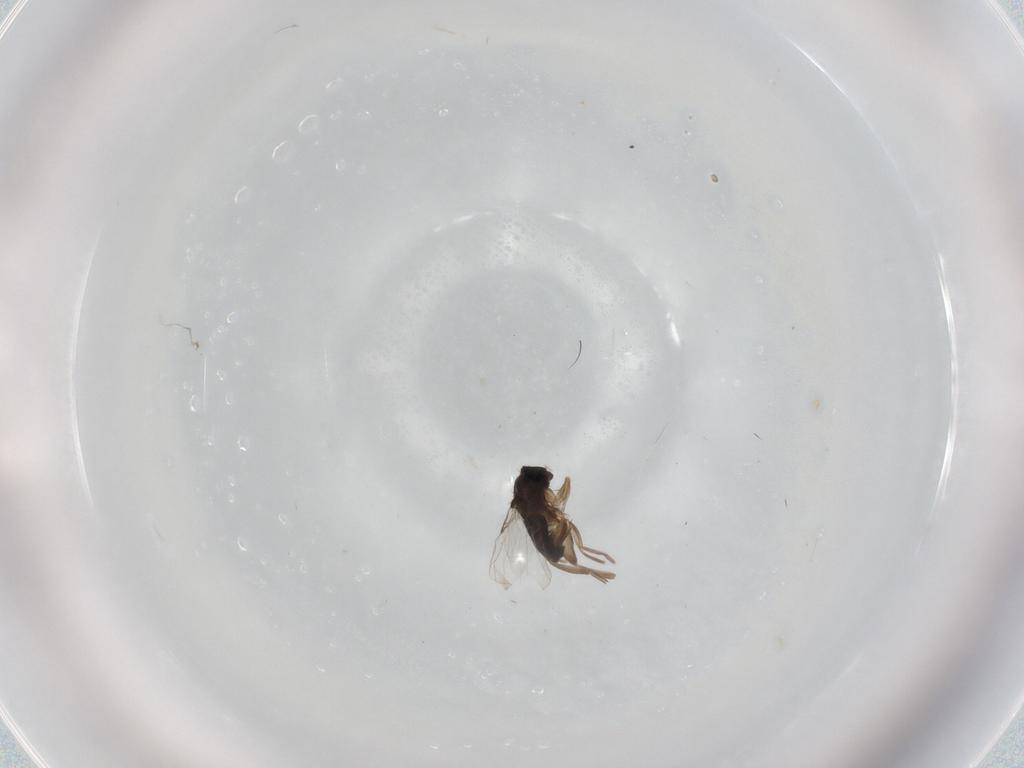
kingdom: Animalia
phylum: Arthropoda
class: Insecta
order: Diptera
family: Phoridae
